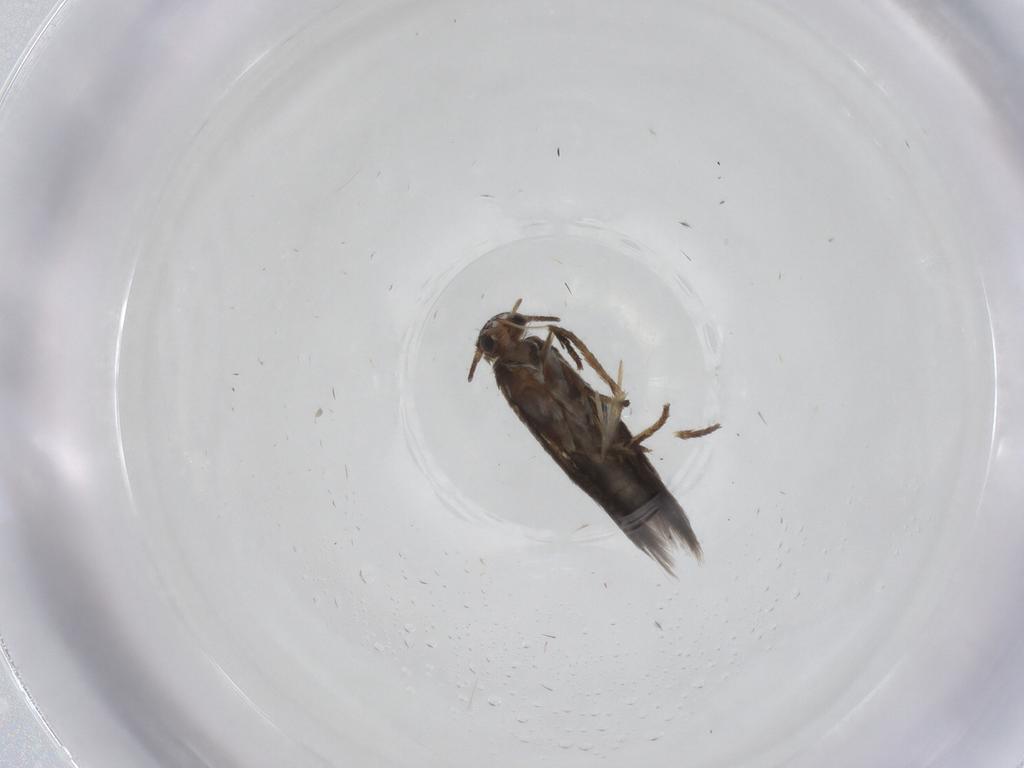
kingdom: Animalia
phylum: Arthropoda
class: Insecta
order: Lepidoptera
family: Heliozelidae
